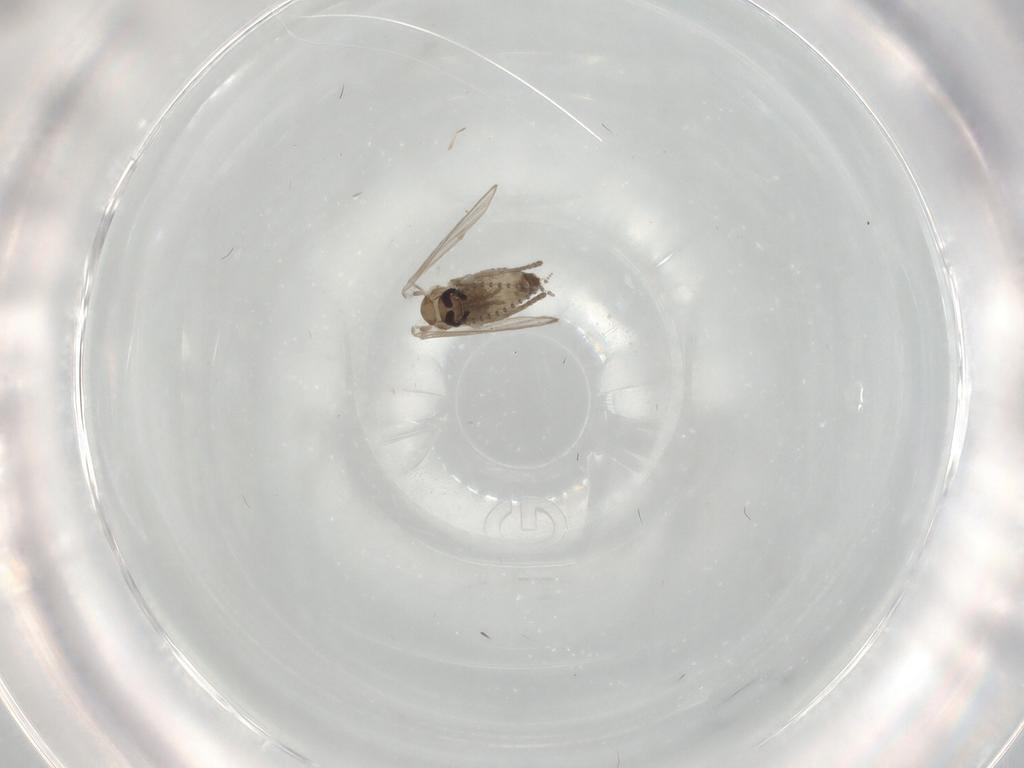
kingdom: Animalia
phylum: Arthropoda
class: Insecta
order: Diptera
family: Psychodidae
